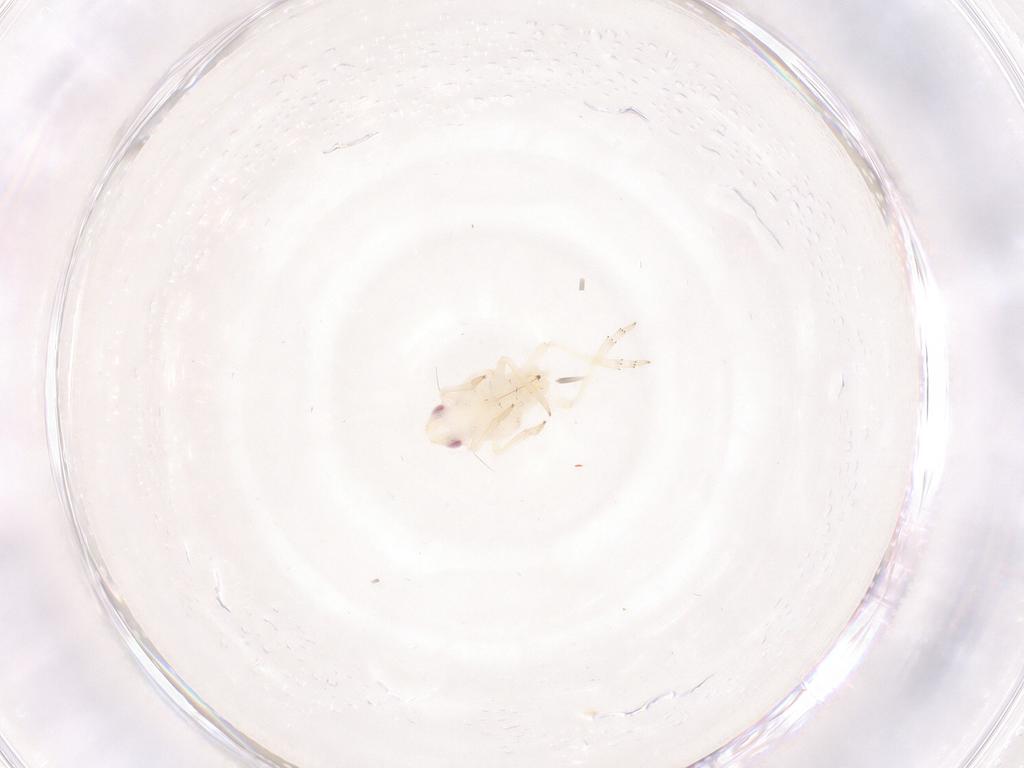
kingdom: Animalia
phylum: Arthropoda
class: Insecta
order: Hemiptera
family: Tropiduchidae
